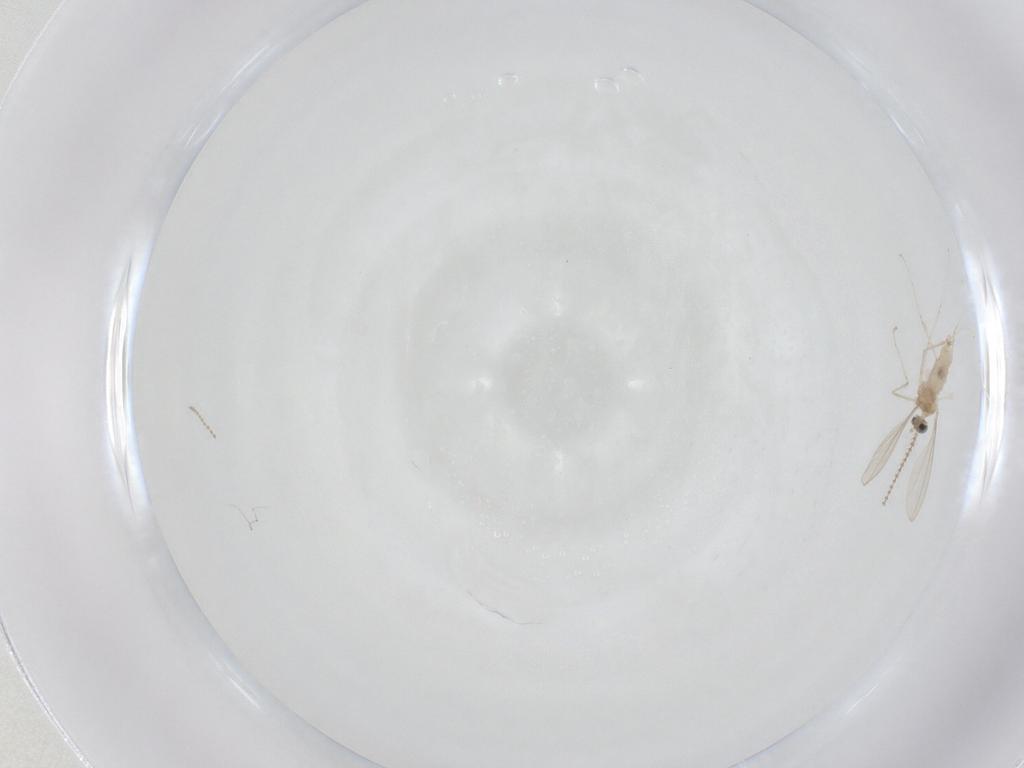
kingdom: Animalia
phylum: Arthropoda
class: Insecta
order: Diptera
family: Cecidomyiidae
